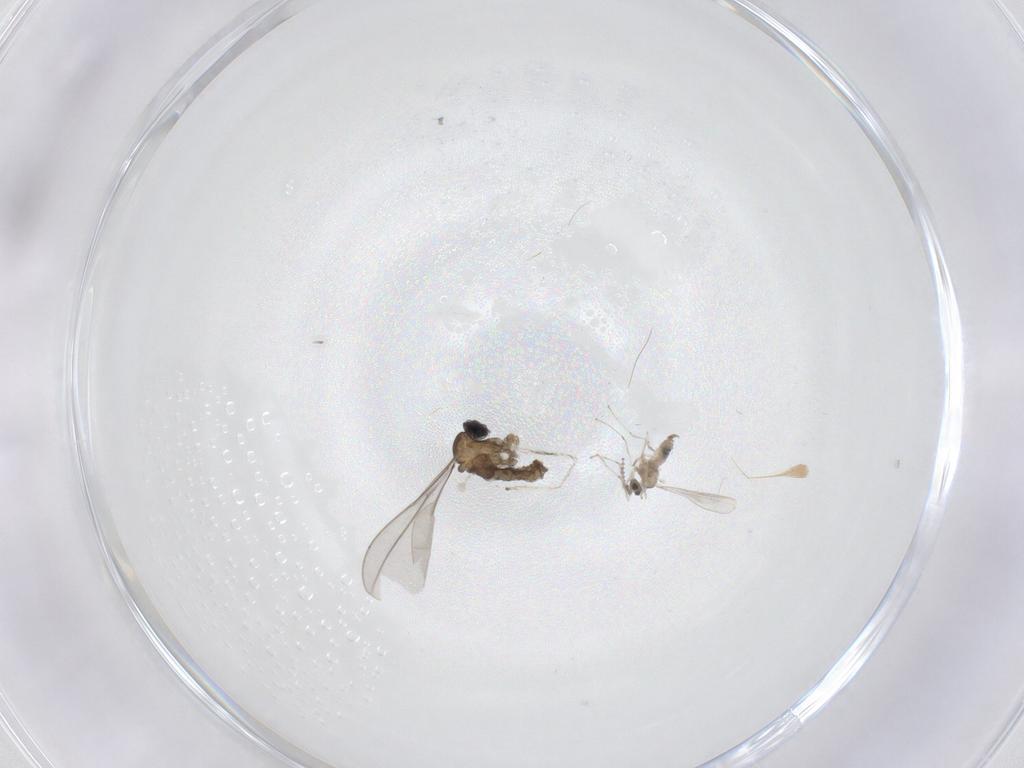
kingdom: Animalia
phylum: Arthropoda
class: Insecta
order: Diptera
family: Cecidomyiidae
